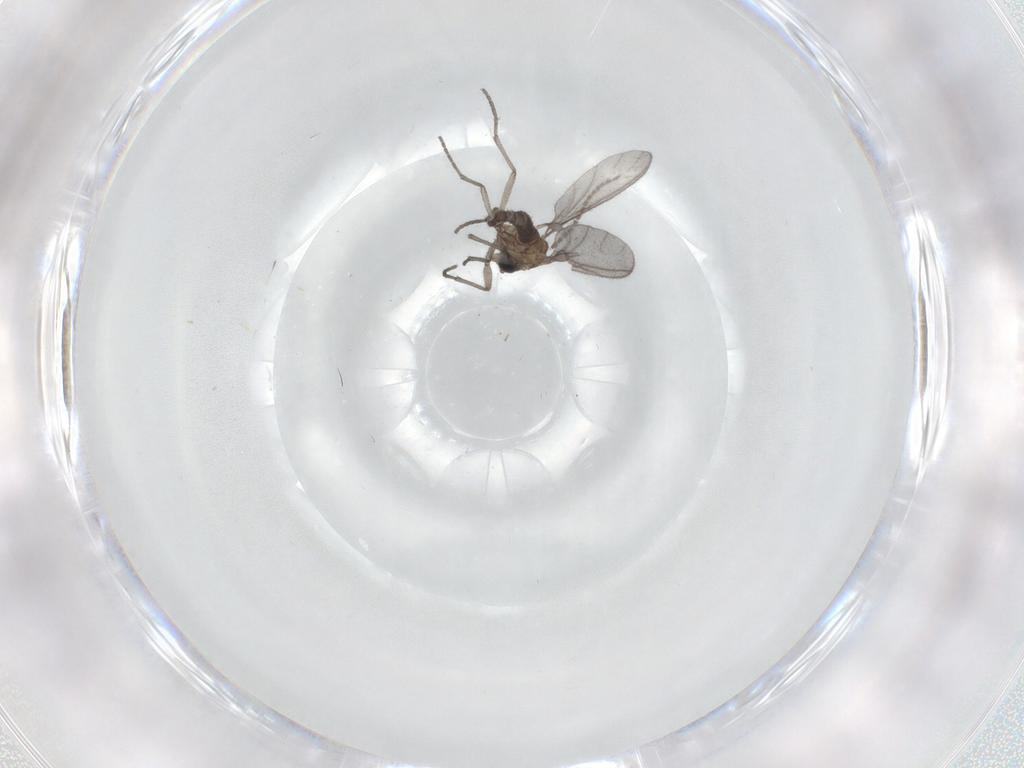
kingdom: Animalia
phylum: Arthropoda
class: Insecta
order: Diptera
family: Sciaridae
